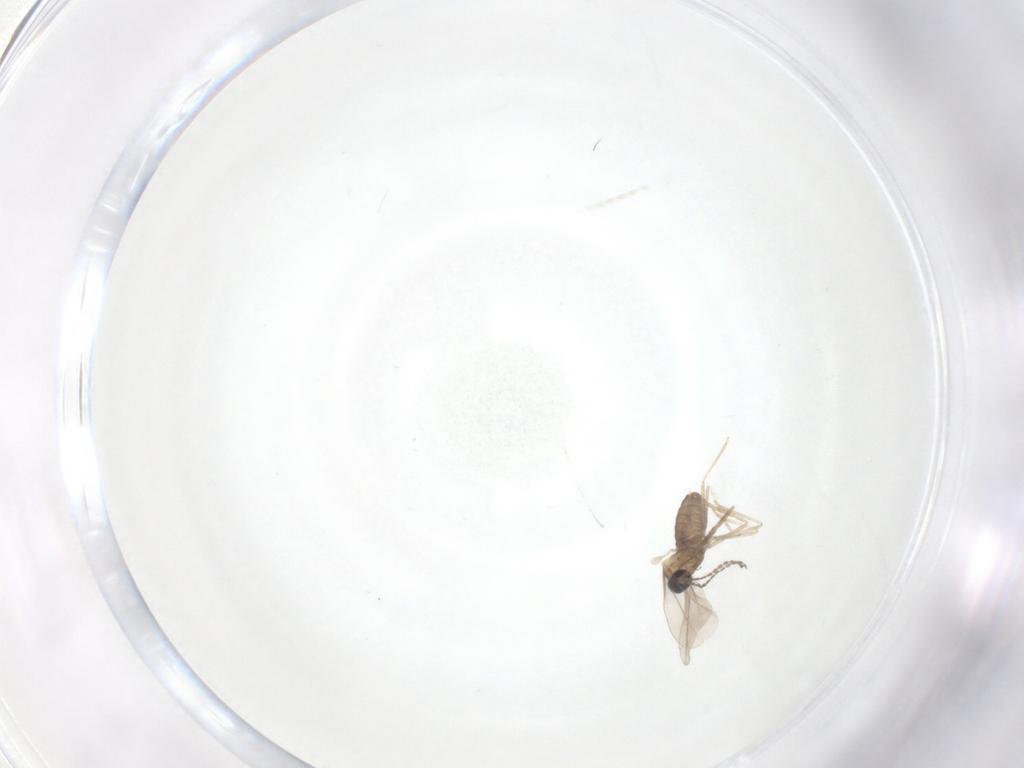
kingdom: Animalia
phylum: Arthropoda
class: Insecta
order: Diptera
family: Cecidomyiidae
